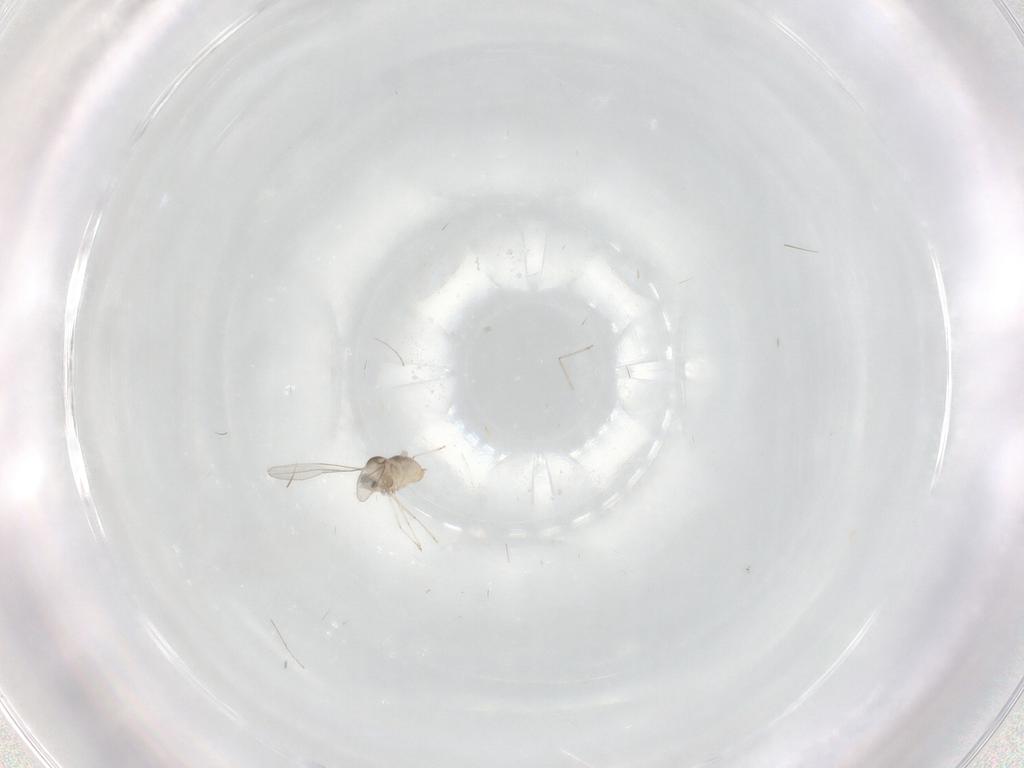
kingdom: Animalia
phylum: Arthropoda
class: Insecta
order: Diptera
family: Cecidomyiidae
